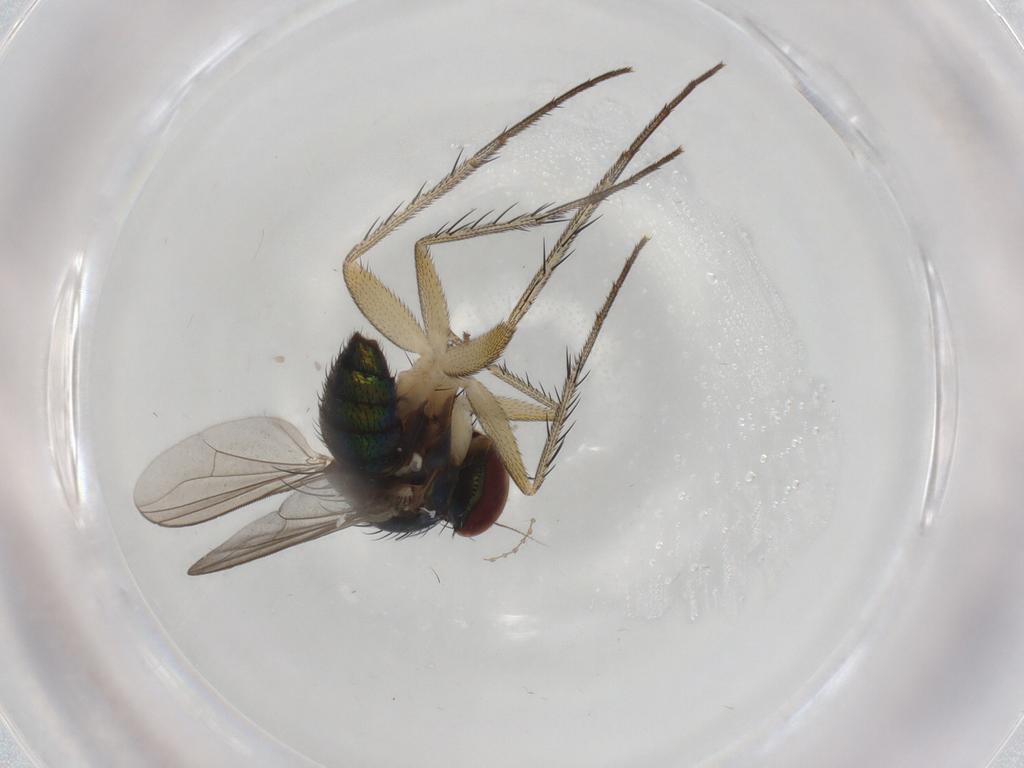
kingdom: Animalia
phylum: Arthropoda
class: Insecta
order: Diptera
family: Dolichopodidae
